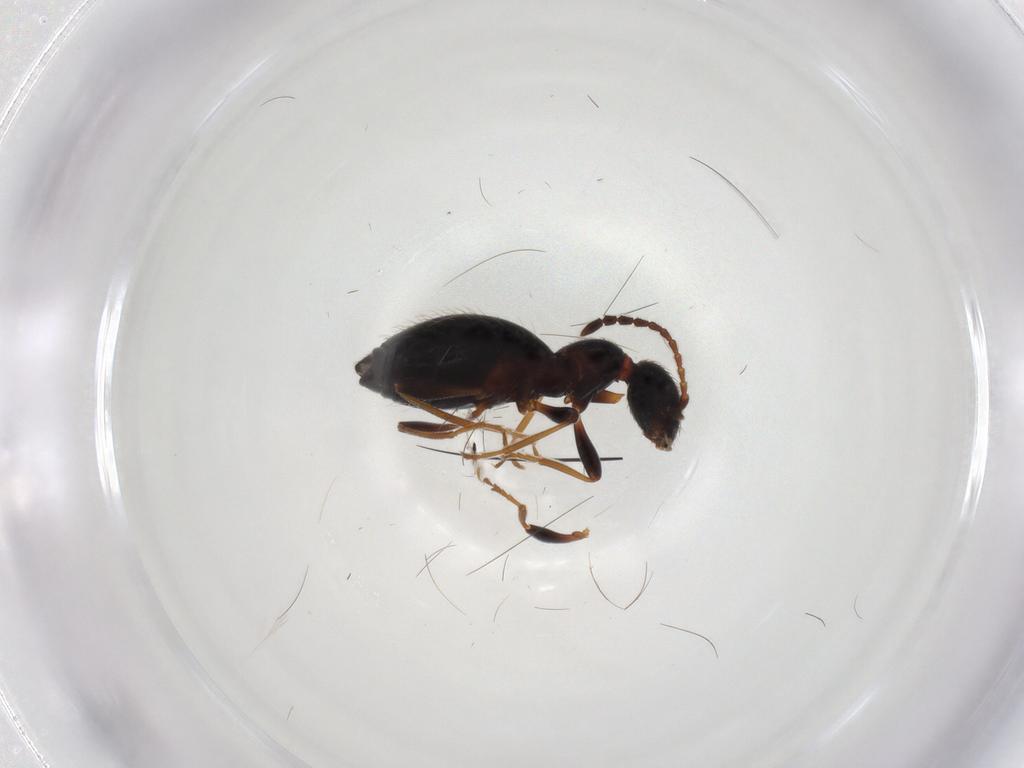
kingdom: Animalia
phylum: Arthropoda
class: Insecta
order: Coleoptera
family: Anthicidae
